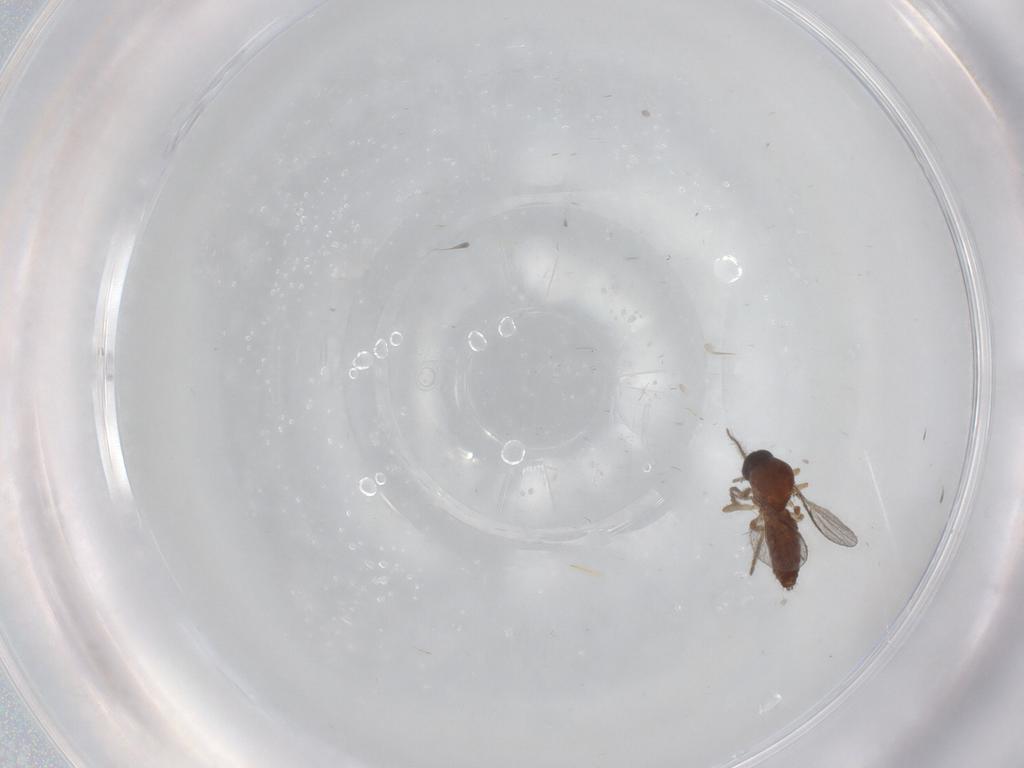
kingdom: Animalia
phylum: Arthropoda
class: Insecta
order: Diptera
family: Ceratopogonidae
